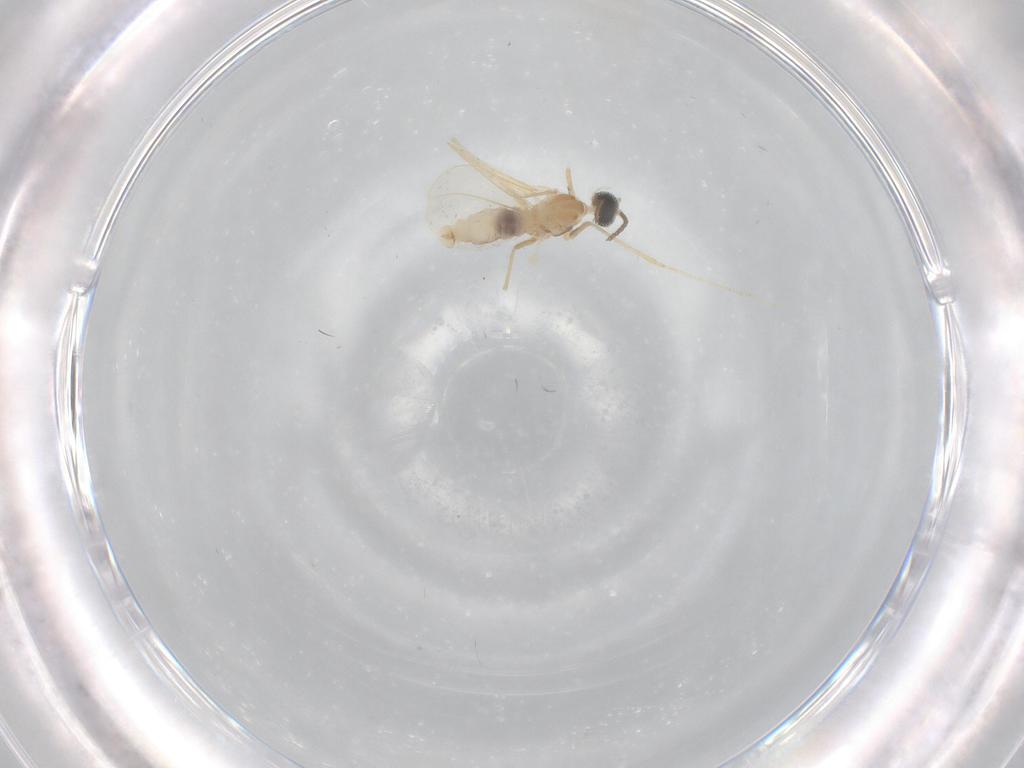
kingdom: Animalia
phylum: Arthropoda
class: Insecta
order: Diptera
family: Cecidomyiidae
